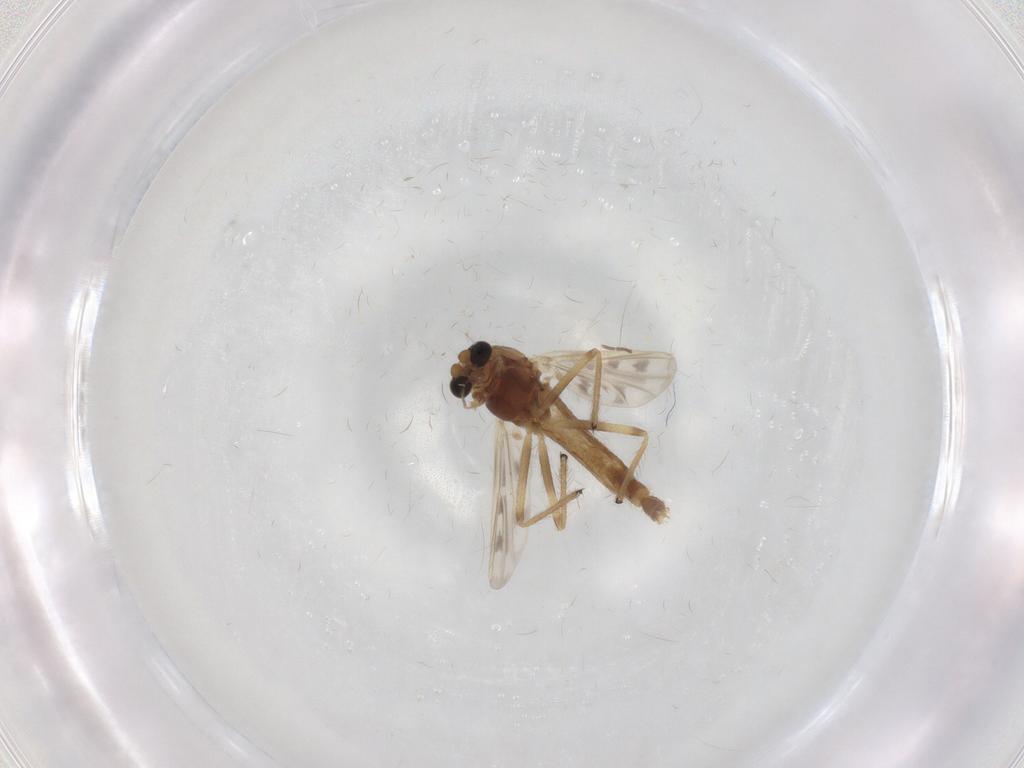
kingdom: Animalia
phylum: Arthropoda
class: Insecta
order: Diptera
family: Chironomidae
